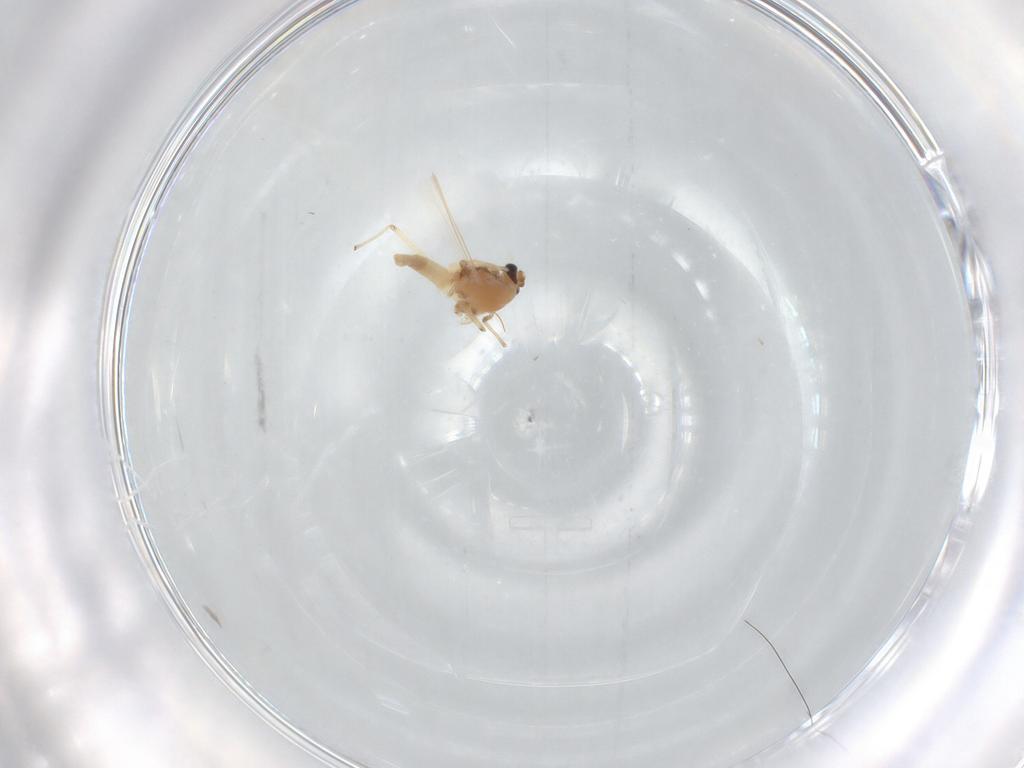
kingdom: Animalia
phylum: Arthropoda
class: Insecta
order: Diptera
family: Chironomidae
